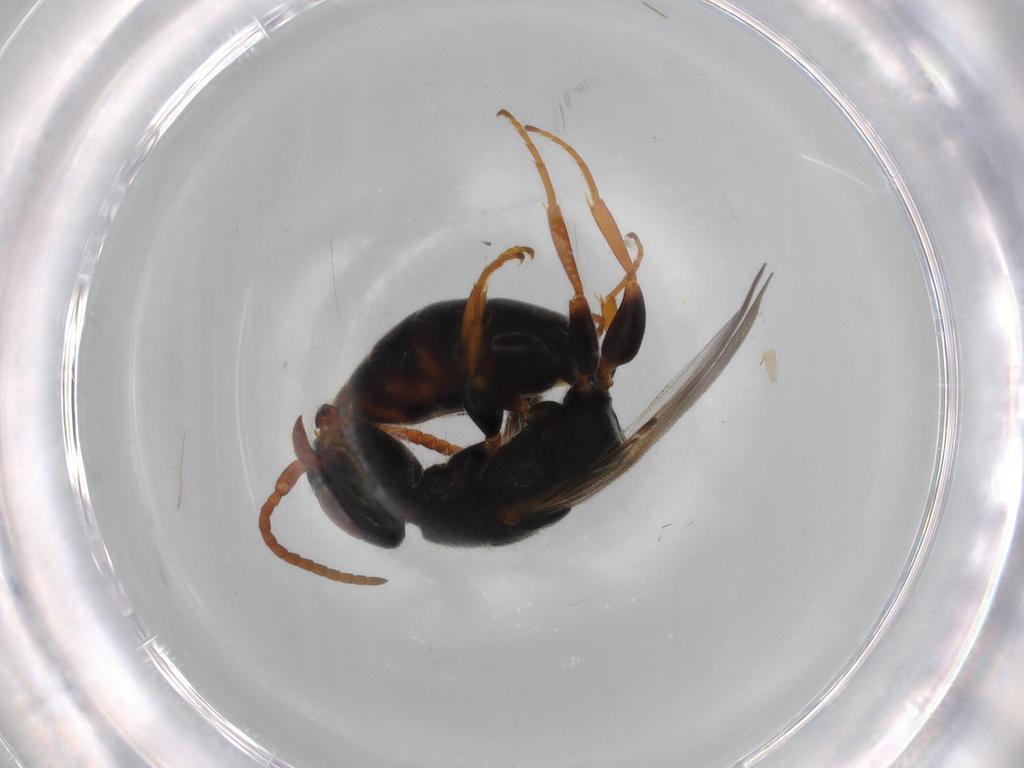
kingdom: Animalia
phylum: Arthropoda
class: Insecta
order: Hymenoptera
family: Bethylidae
